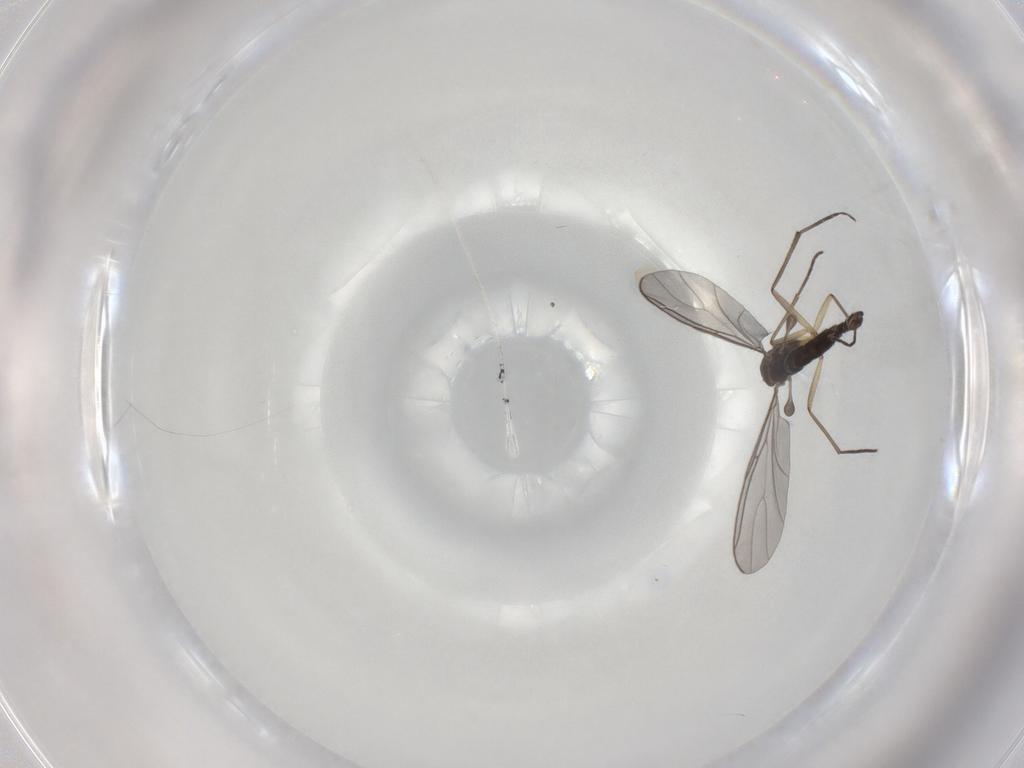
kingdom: Animalia
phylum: Arthropoda
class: Insecta
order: Diptera
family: Sciaridae
